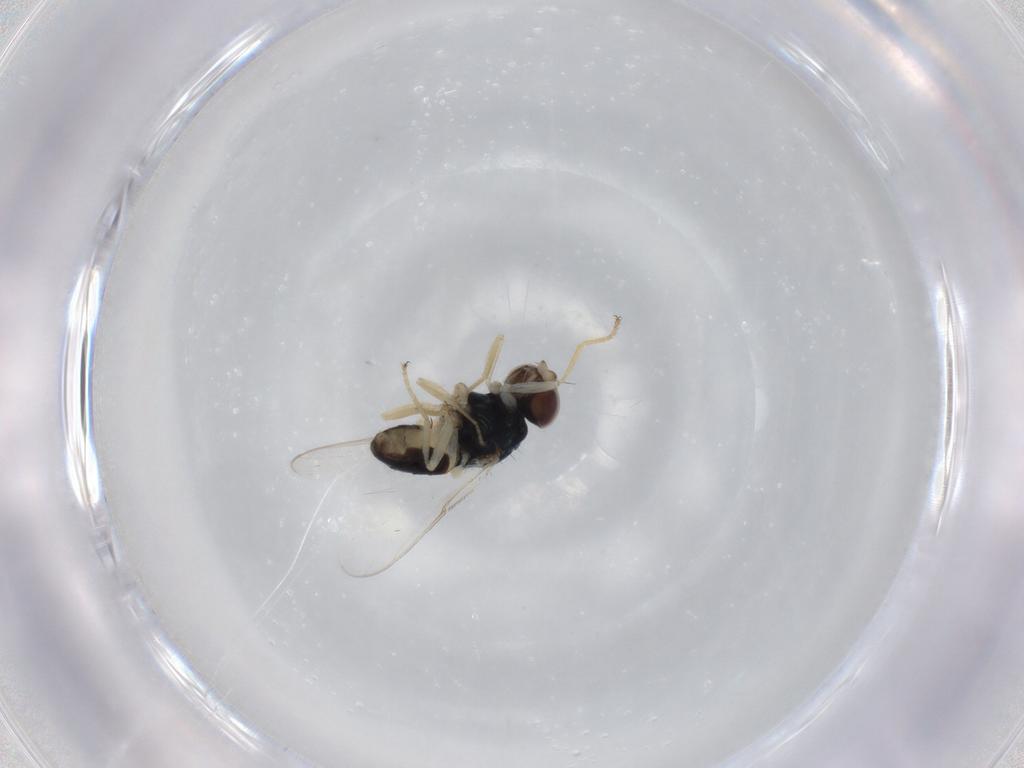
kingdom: Animalia
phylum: Arthropoda
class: Insecta
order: Diptera
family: Chloropidae
